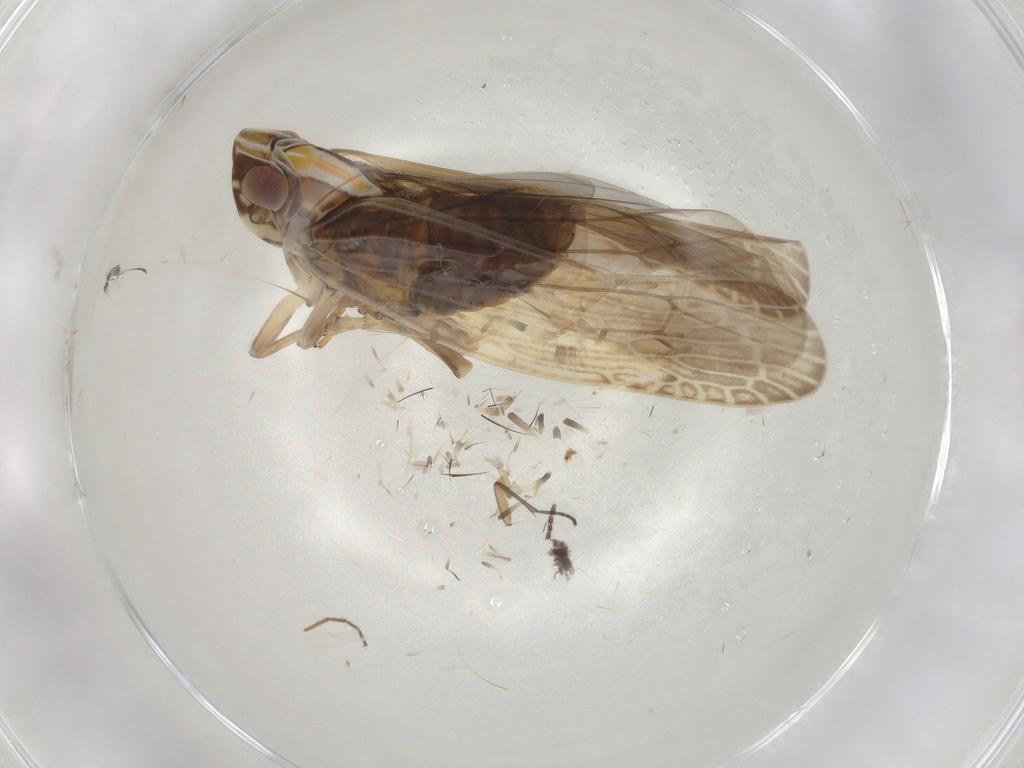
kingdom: Animalia
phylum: Arthropoda
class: Insecta
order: Hemiptera
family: Achilidae
